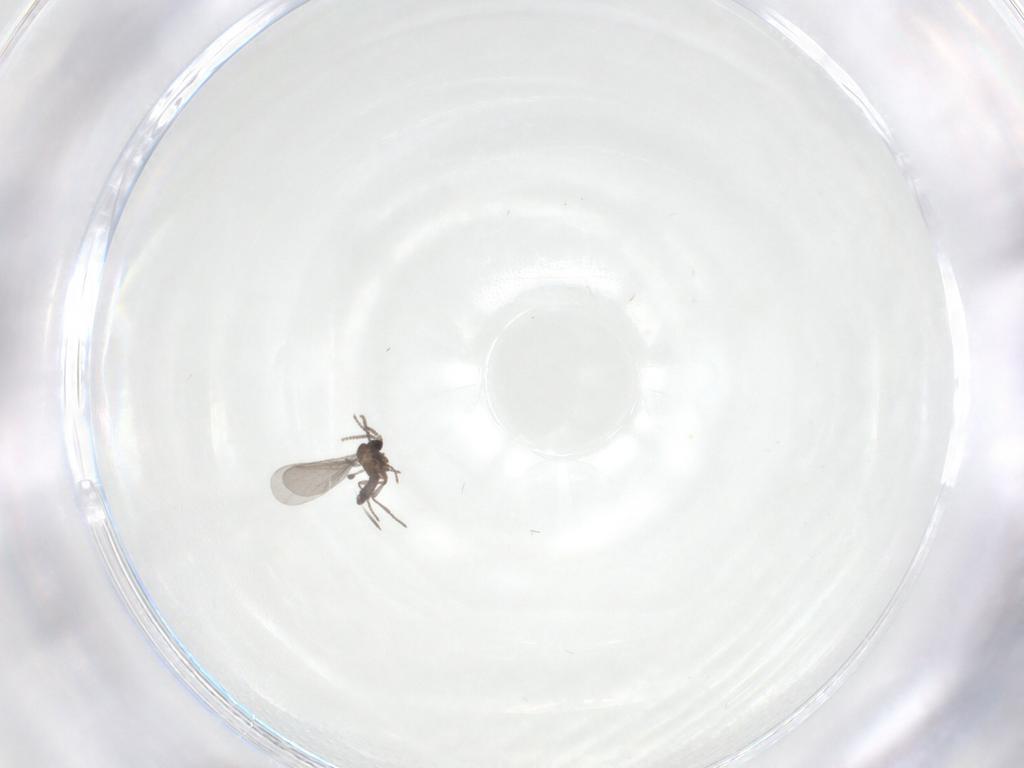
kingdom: Animalia
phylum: Arthropoda
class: Insecta
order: Diptera
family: Sciaridae
